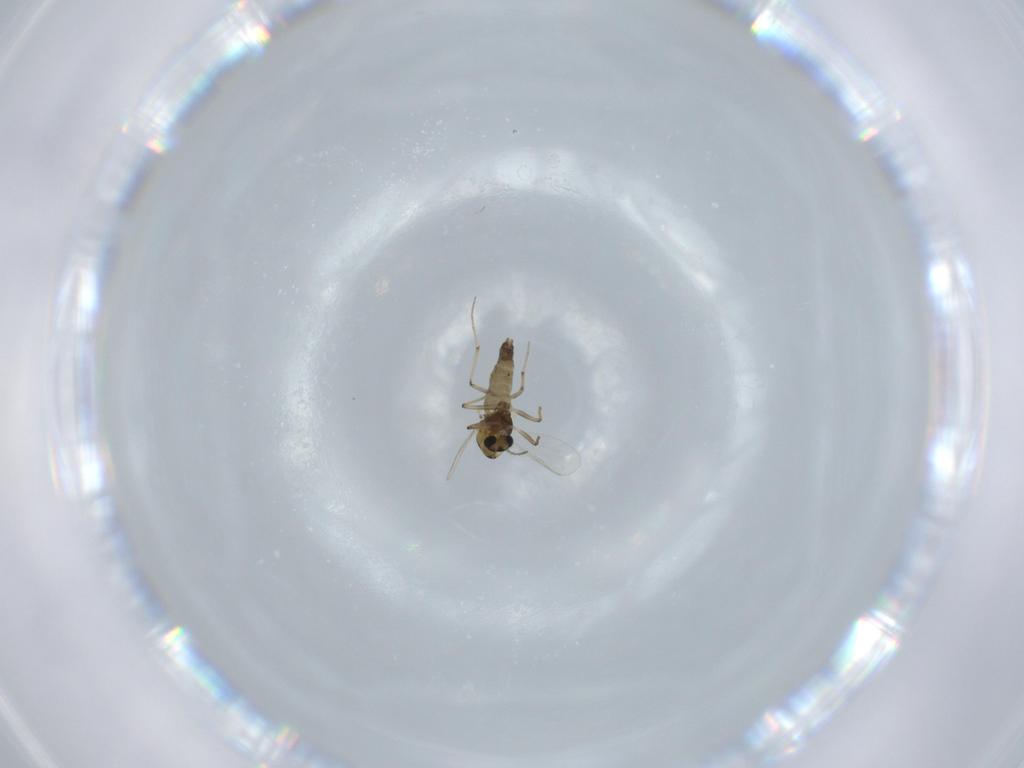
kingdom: Animalia
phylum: Arthropoda
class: Insecta
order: Diptera
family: Chironomidae
